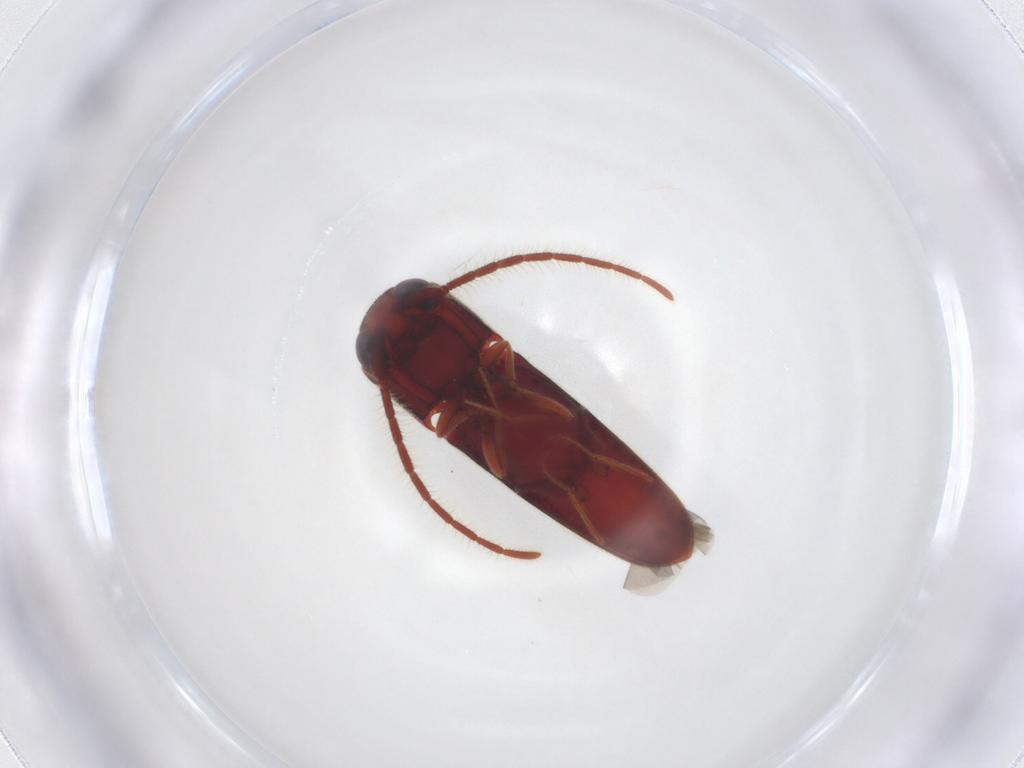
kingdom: Animalia
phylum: Arthropoda
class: Insecta
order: Coleoptera
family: Eucnemidae
